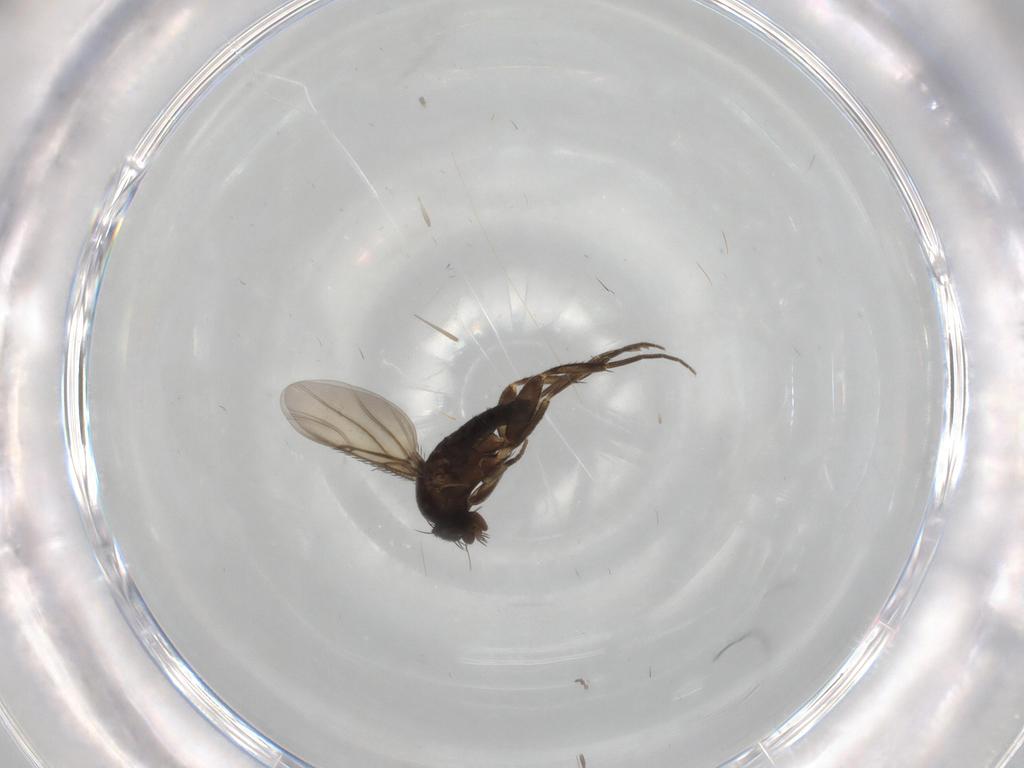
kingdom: Animalia
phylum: Arthropoda
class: Insecta
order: Diptera
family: Phoridae
